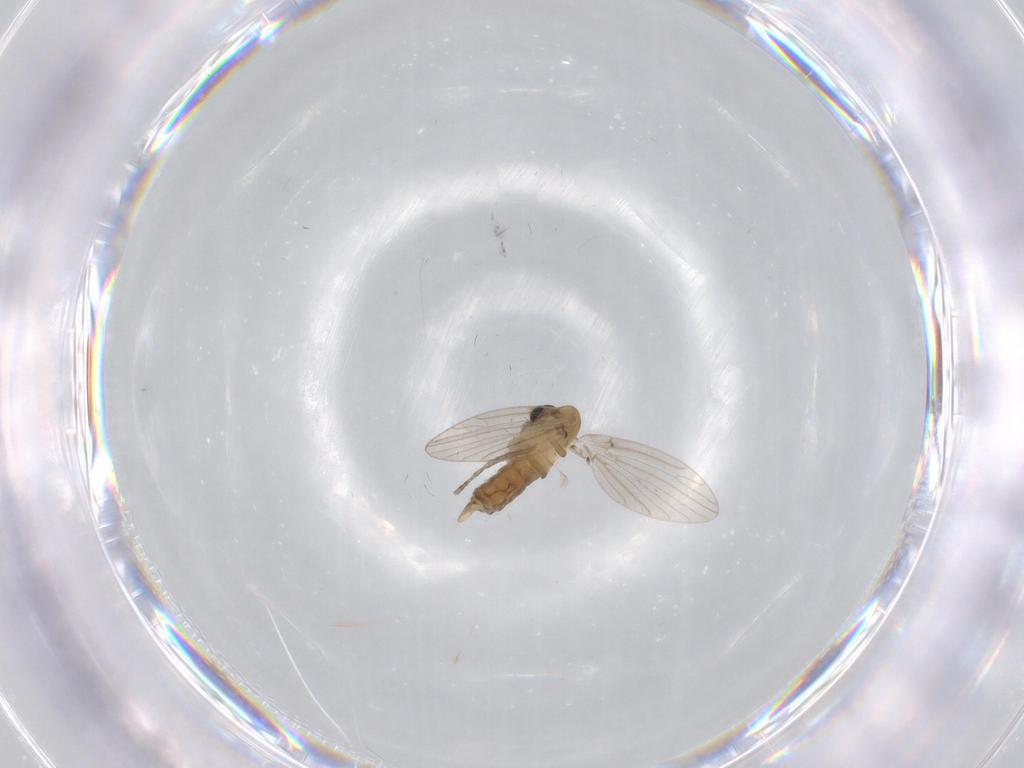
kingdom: Animalia
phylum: Arthropoda
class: Insecta
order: Diptera
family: Psychodidae
